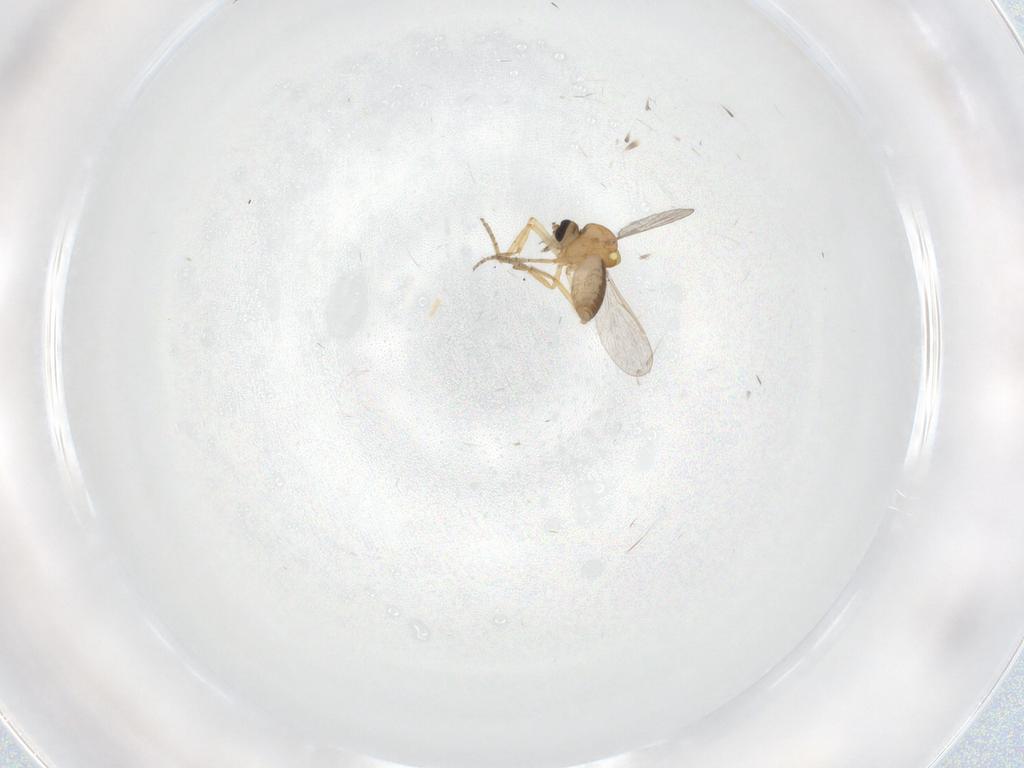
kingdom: Animalia
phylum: Arthropoda
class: Insecta
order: Diptera
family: Ceratopogonidae
